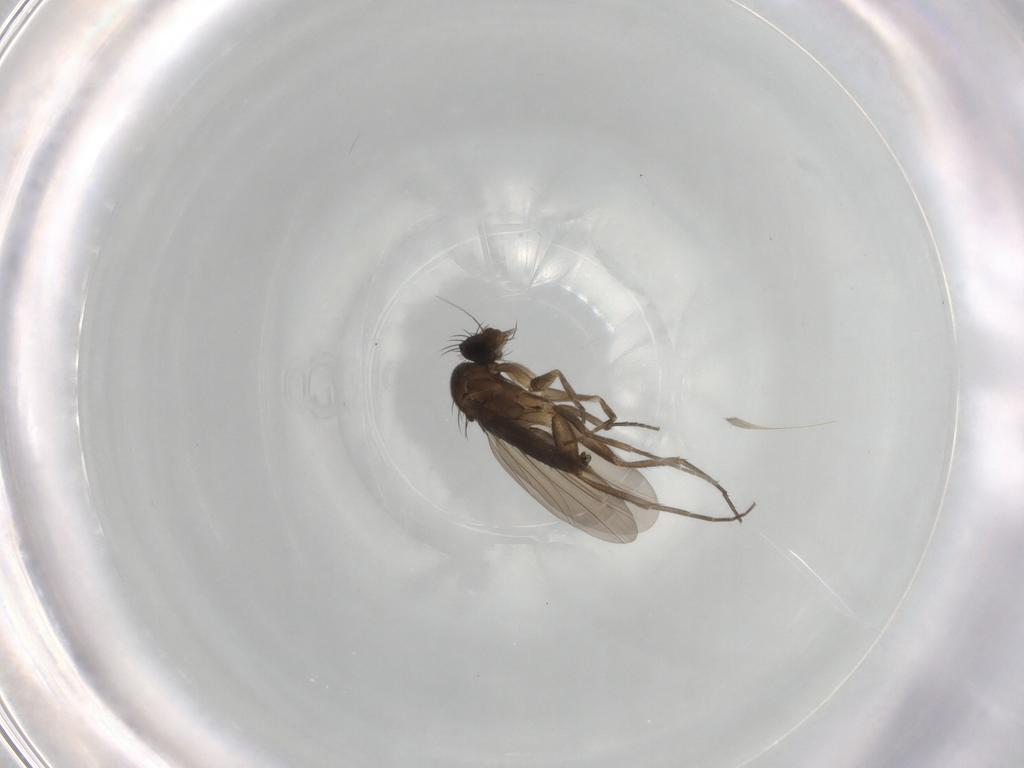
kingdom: Animalia
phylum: Arthropoda
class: Insecta
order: Diptera
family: Phoridae
